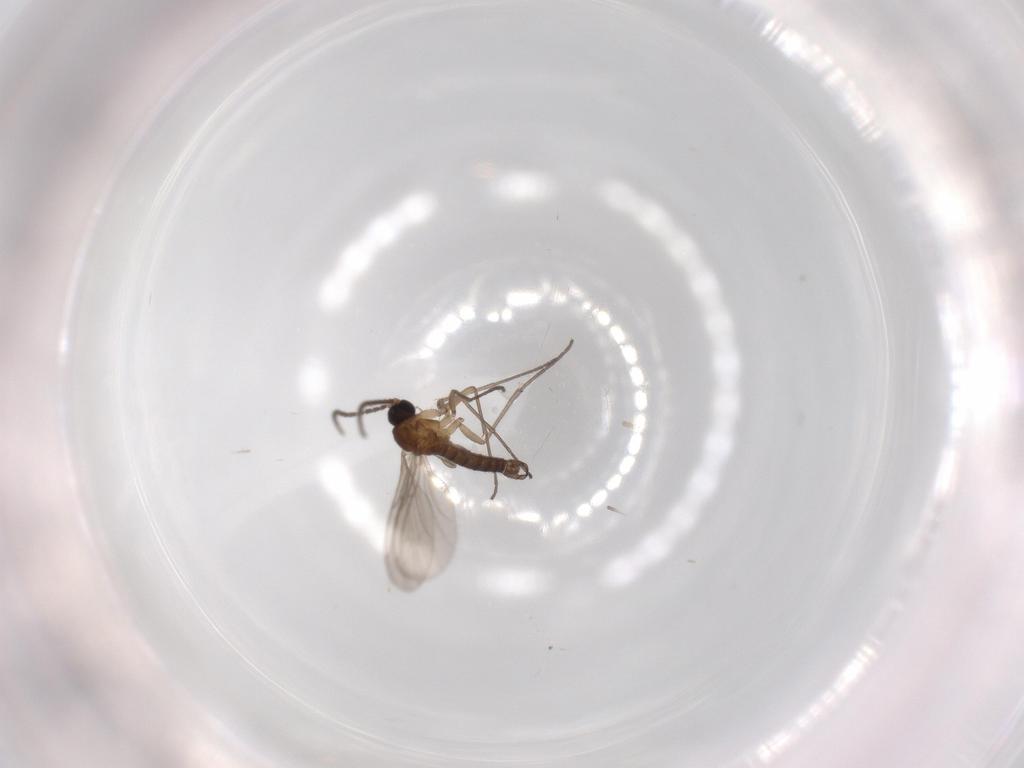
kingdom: Animalia
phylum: Arthropoda
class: Insecta
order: Diptera
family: Sciaridae
